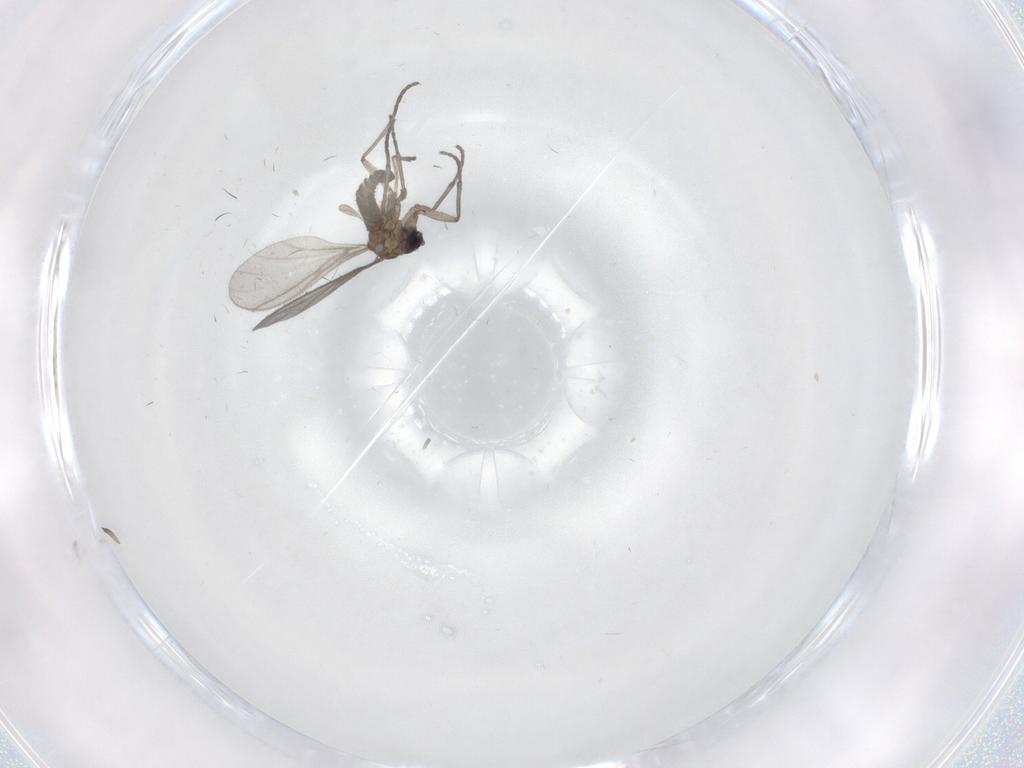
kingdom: Animalia
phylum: Arthropoda
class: Insecta
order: Diptera
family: Sciaridae
